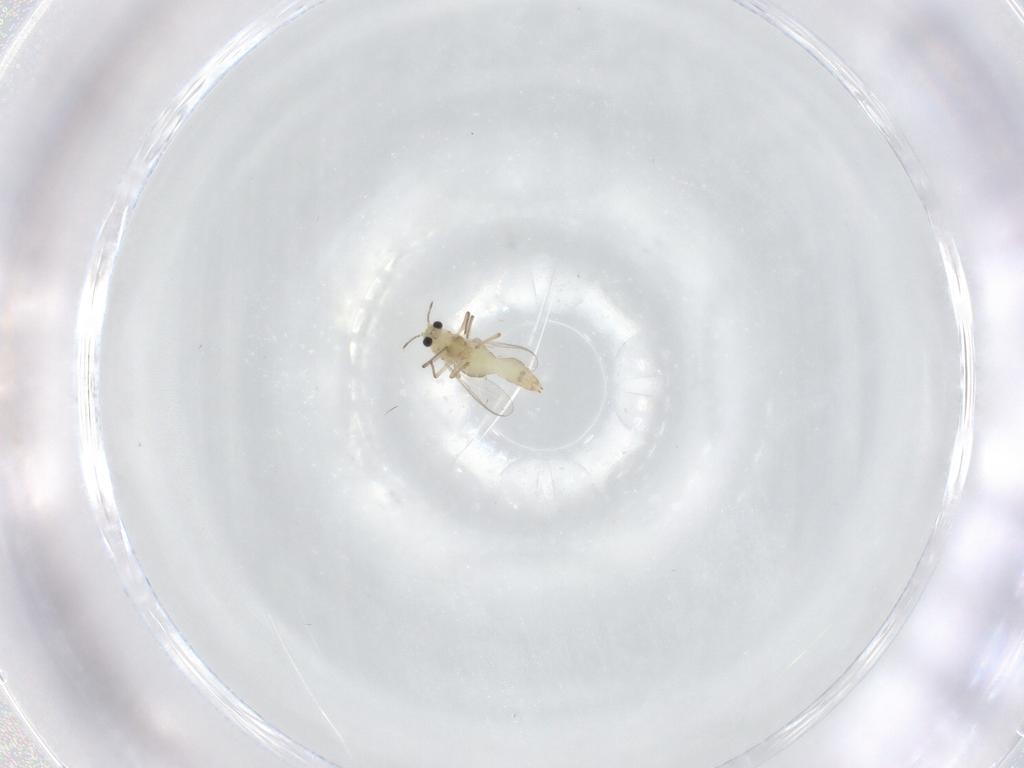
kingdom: Animalia
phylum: Arthropoda
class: Insecta
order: Diptera
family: Chironomidae
